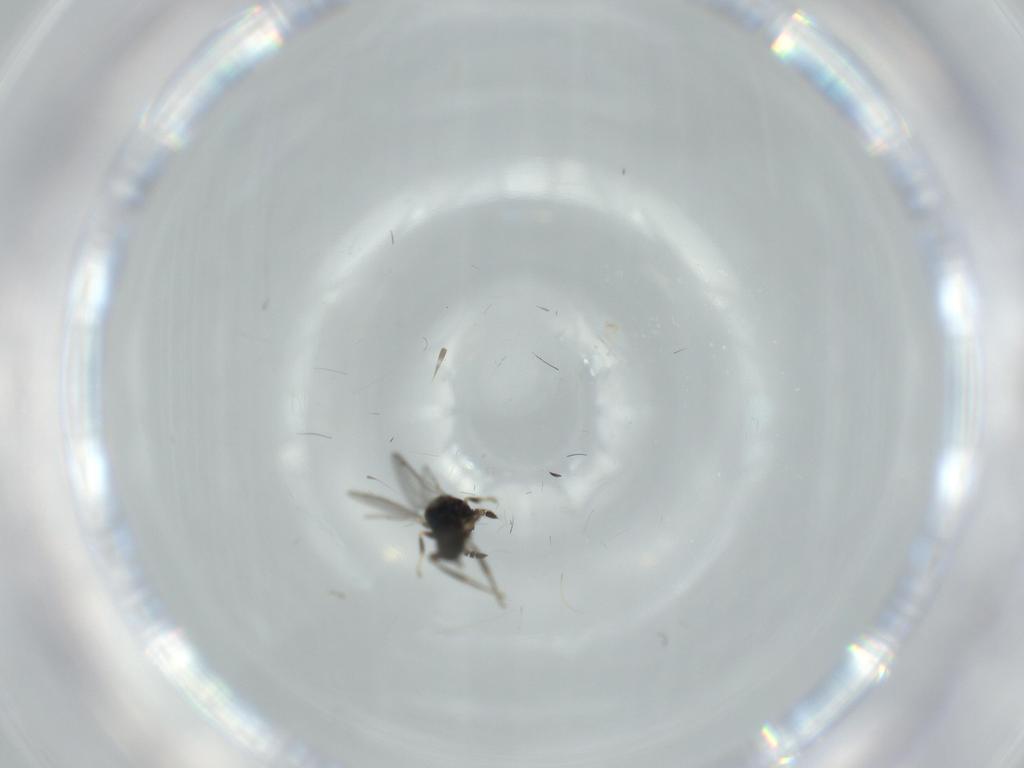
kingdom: Animalia
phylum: Arthropoda
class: Insecta
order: Hymenoptera
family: Cleonyminae
